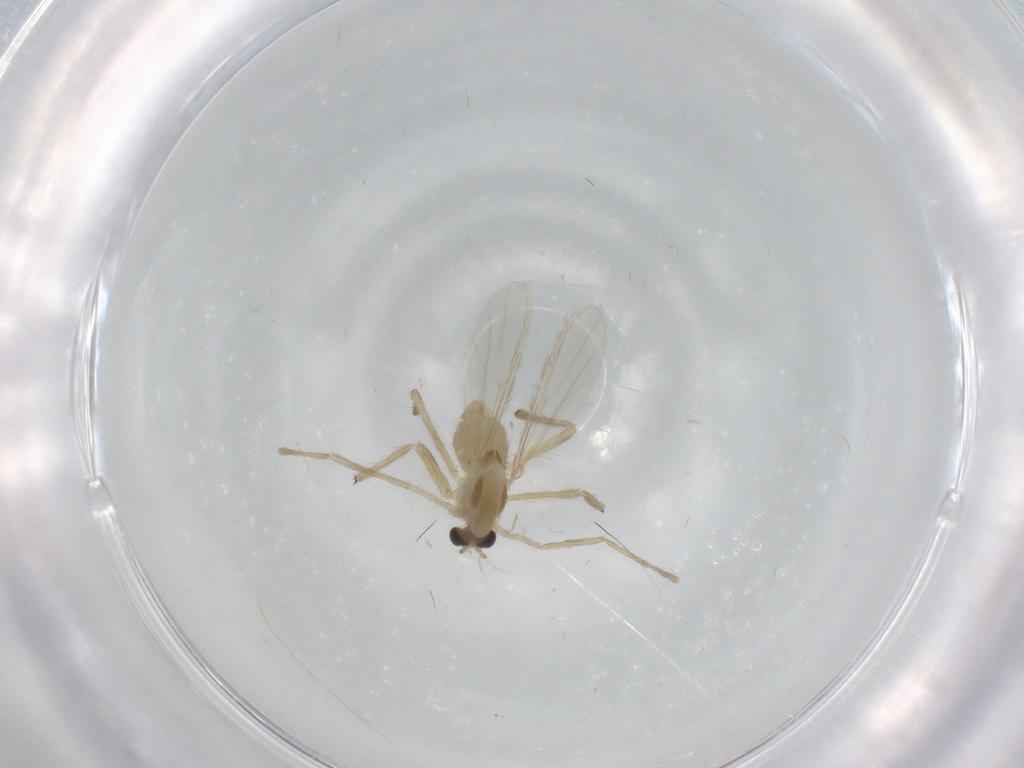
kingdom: Animalia
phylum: Arthropoda
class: Insecta
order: Diptera
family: Chironomidae
